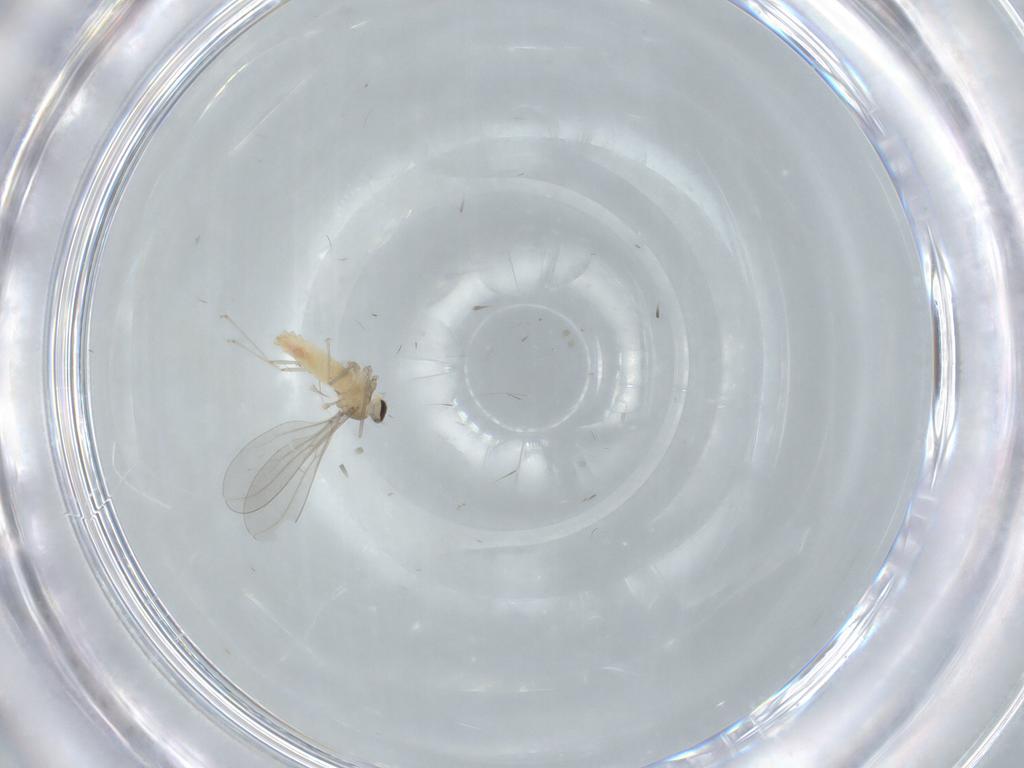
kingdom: Animalia
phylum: Arthropoda
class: Insecta
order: Diptera
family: Cecidomyiidae
